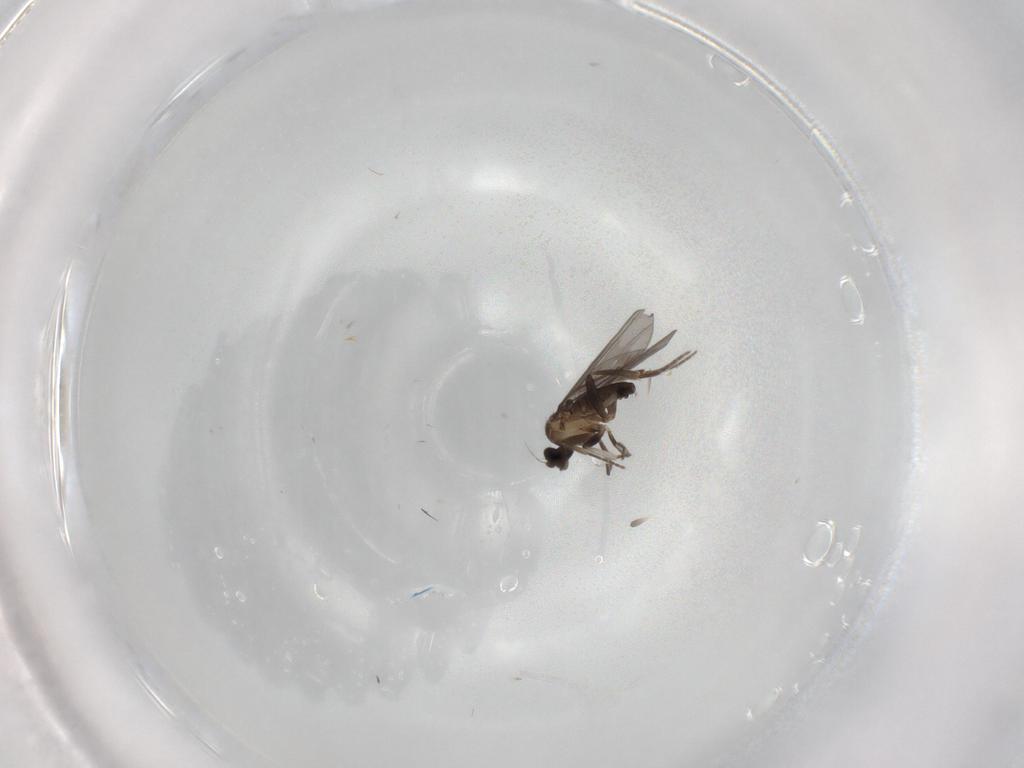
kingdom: Animalia
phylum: Arthropoda
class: Insecta
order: Diptera
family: Phoridae
